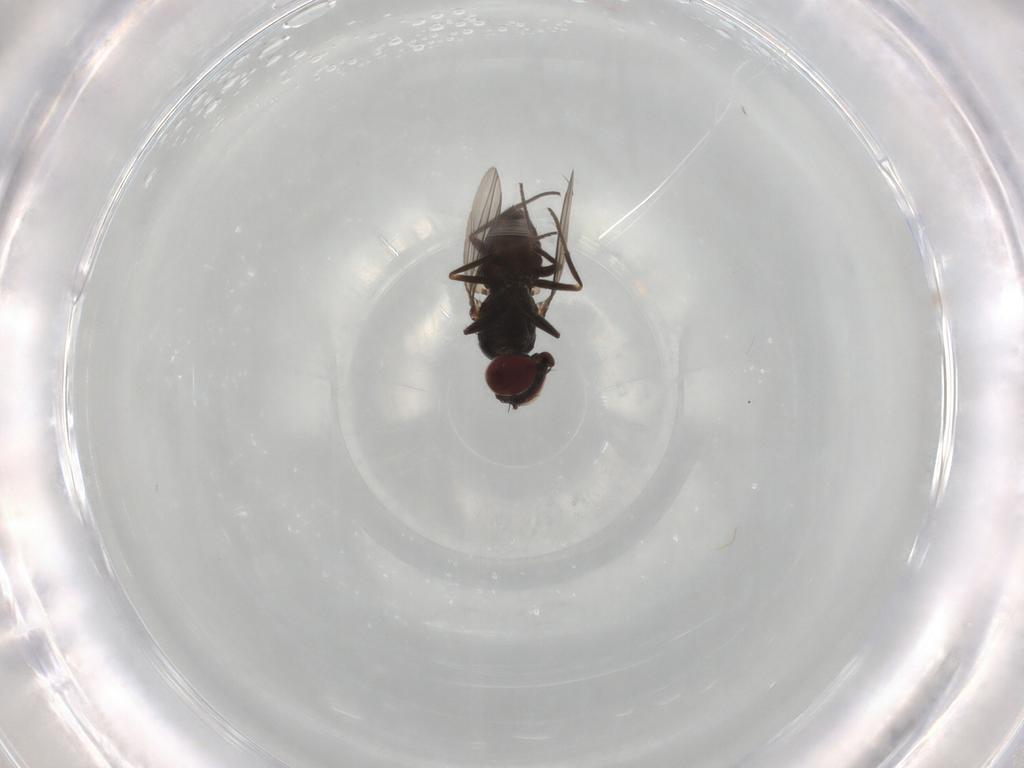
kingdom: Animalia
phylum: Arthropoda
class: Insecta
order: Diptera
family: Dolichopodidae
